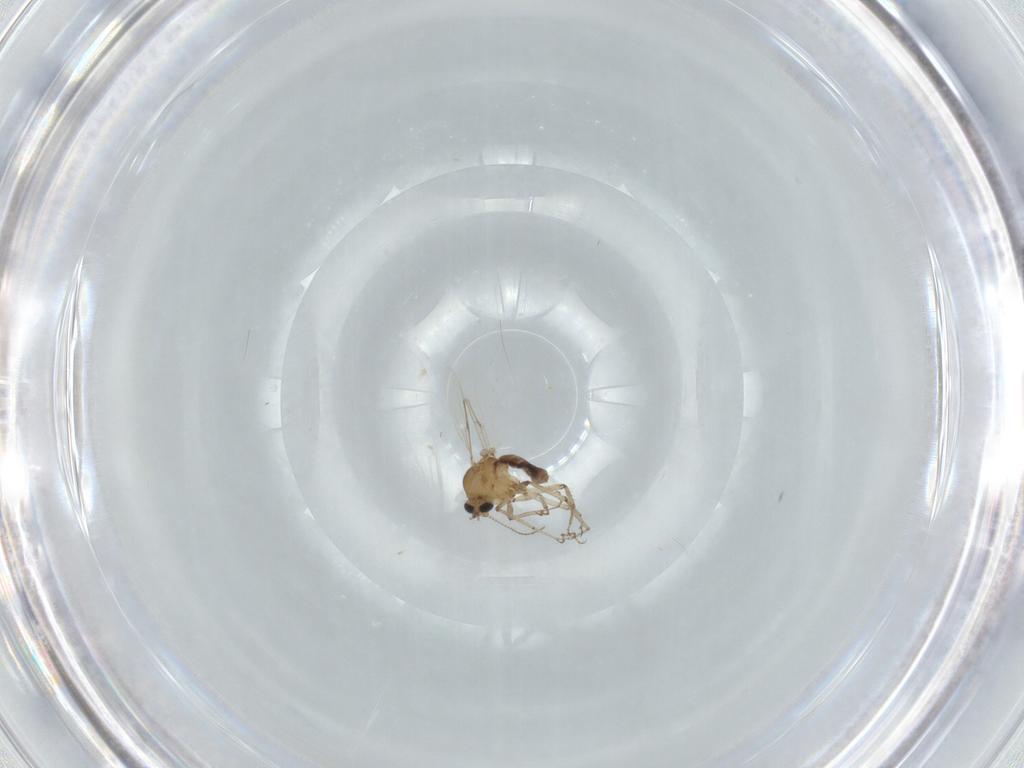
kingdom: Animalia
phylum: Arthropoda
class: Insecta
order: Diptera
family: Ceratopogonidae
